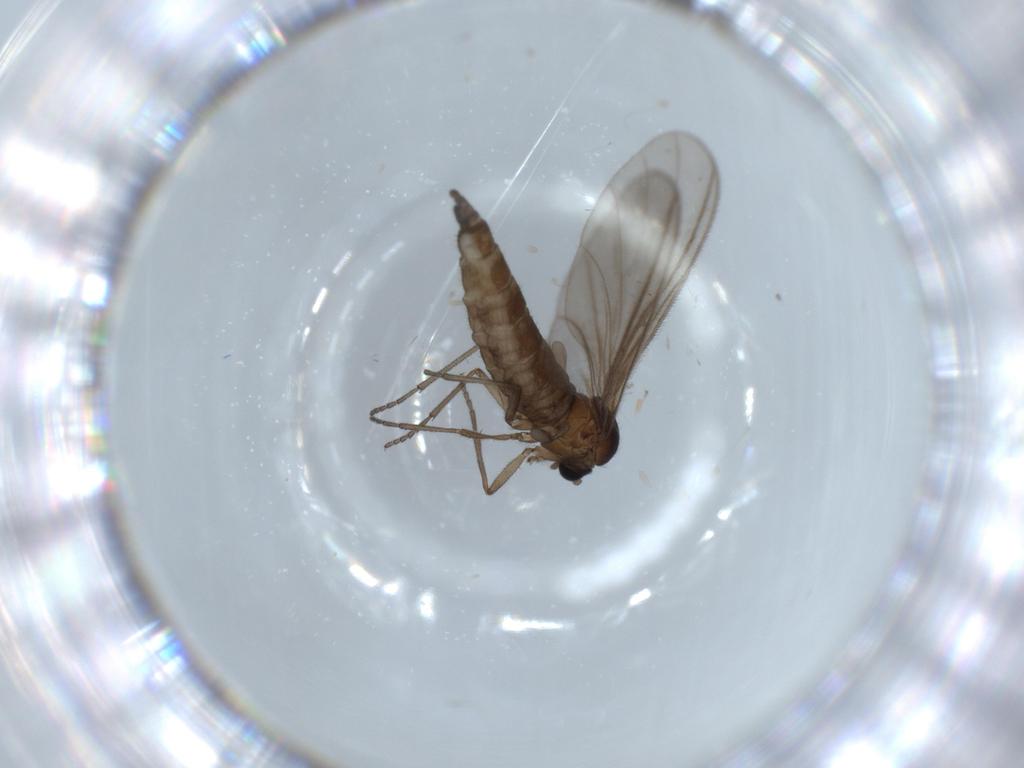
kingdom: Animalia
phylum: Arthropoda
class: Insecta
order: Diptera
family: Sciaridae
